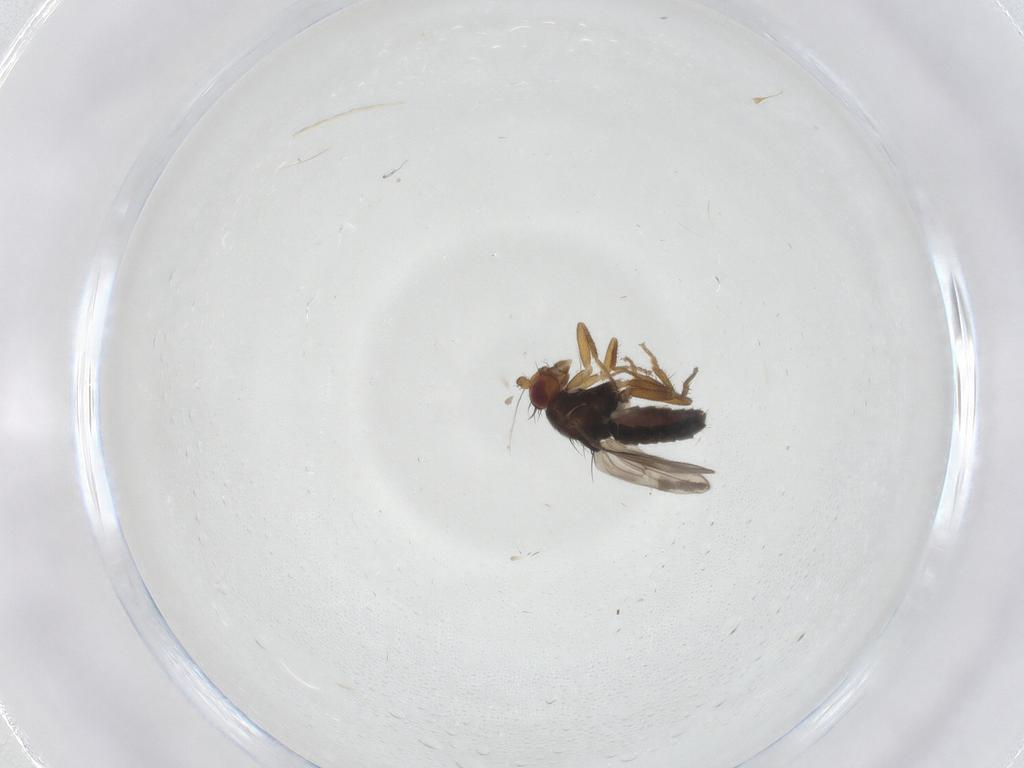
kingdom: Animalia
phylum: Arthropoda
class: Insecta
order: Diptera
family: Sphaeroceridae
